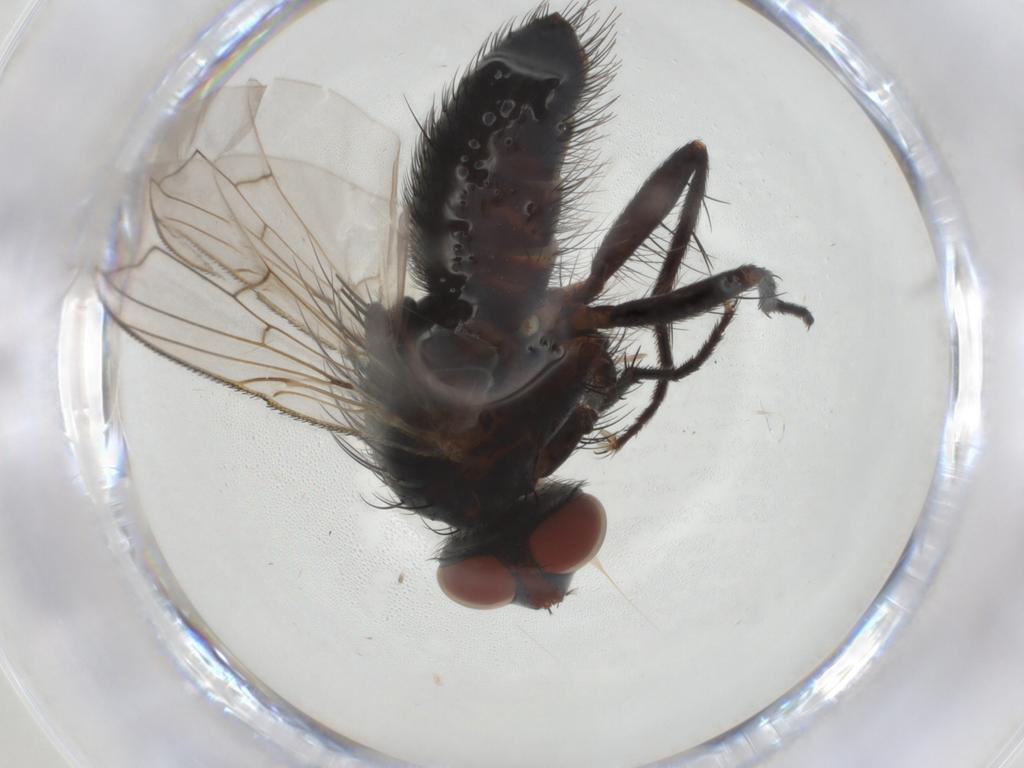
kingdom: Animalia
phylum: Arthropoda
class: Insecta
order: Diptera
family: Tachinidae
